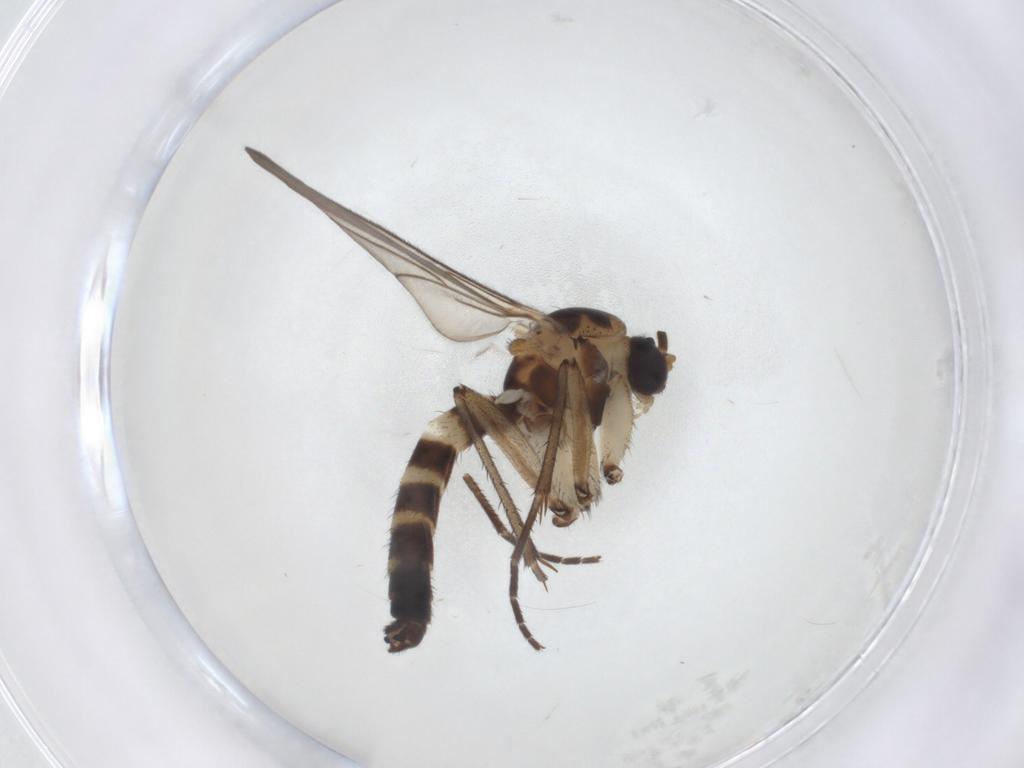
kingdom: Animalia
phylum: Arthropoda
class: Insecta
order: Diptera
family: Mycetophilidae
